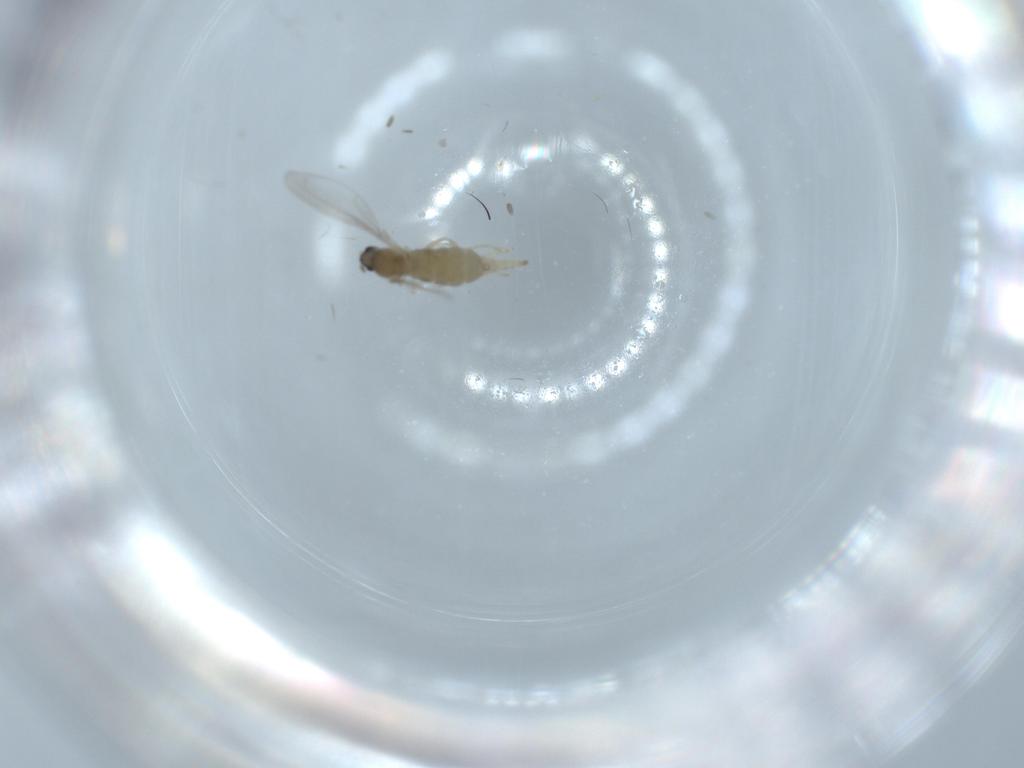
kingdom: Animalia
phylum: Arthropoda
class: Insecta
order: Diptera
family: Cecidomyiidae
